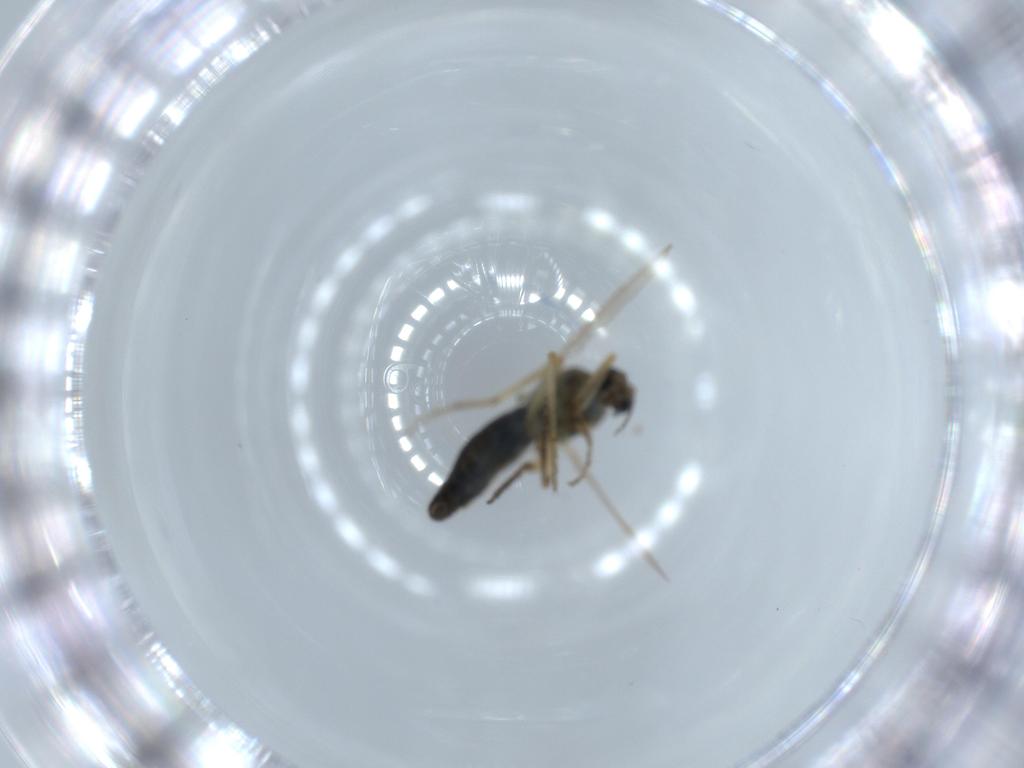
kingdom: Animalia
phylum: Arthropoda
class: Insecta
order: Diptera
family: Ceratopogonidae
